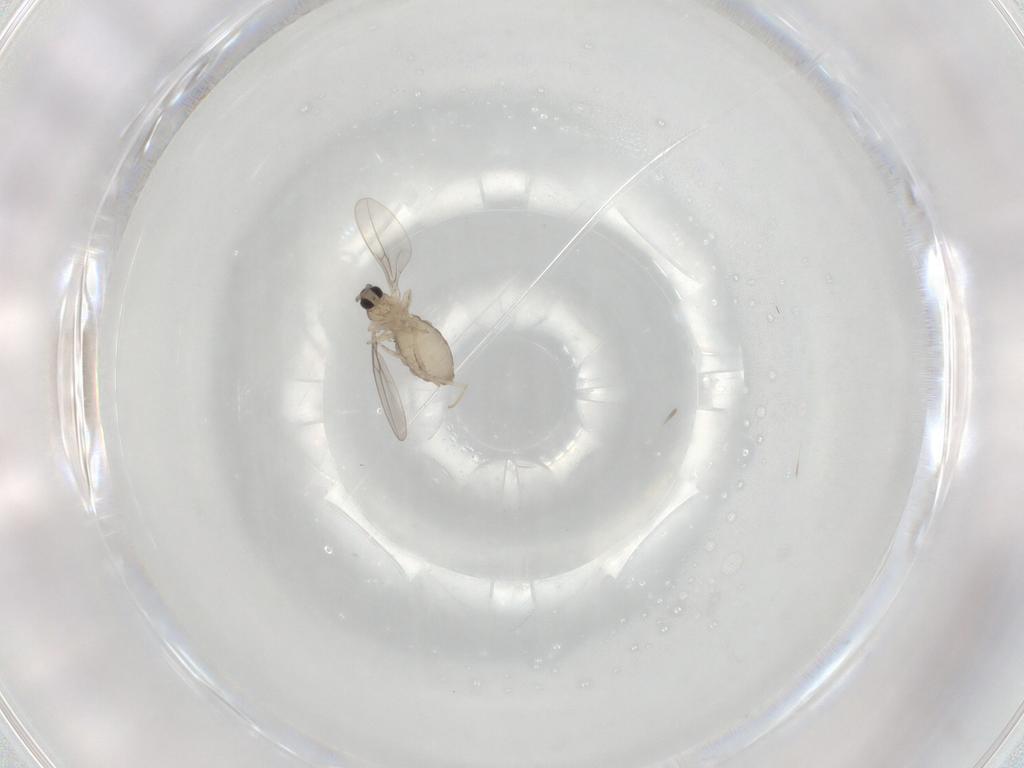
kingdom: Animalia
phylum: Arthropoda
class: Insecta
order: Diptera
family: Cecidomyiidae
